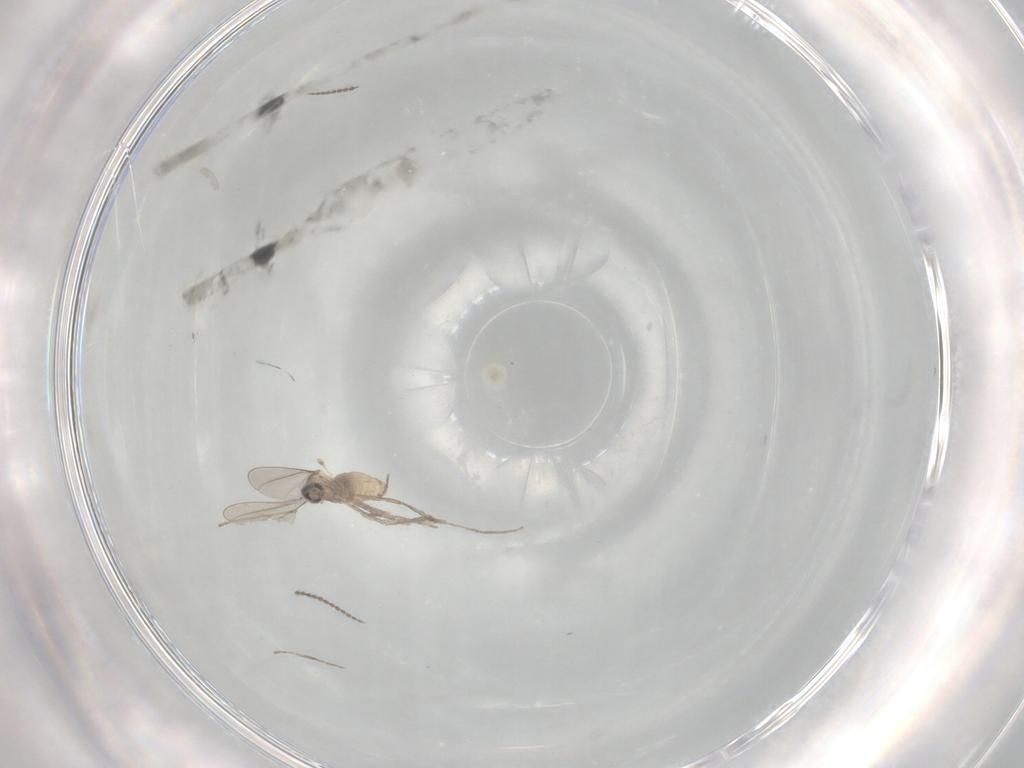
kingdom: Animalia
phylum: Arthropoda
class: Insecta
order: Diptera
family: Cecidomyiidae
